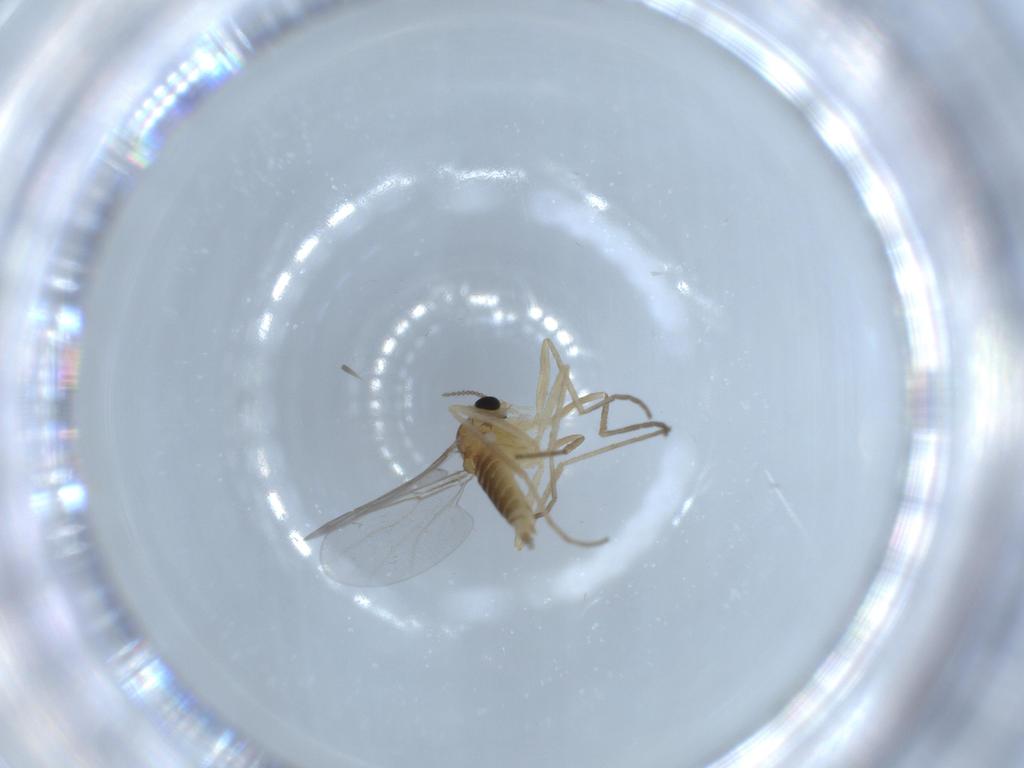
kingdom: Animalia
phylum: Arthropoda
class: Insecta
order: Diptera
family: Cecidomyiidae
